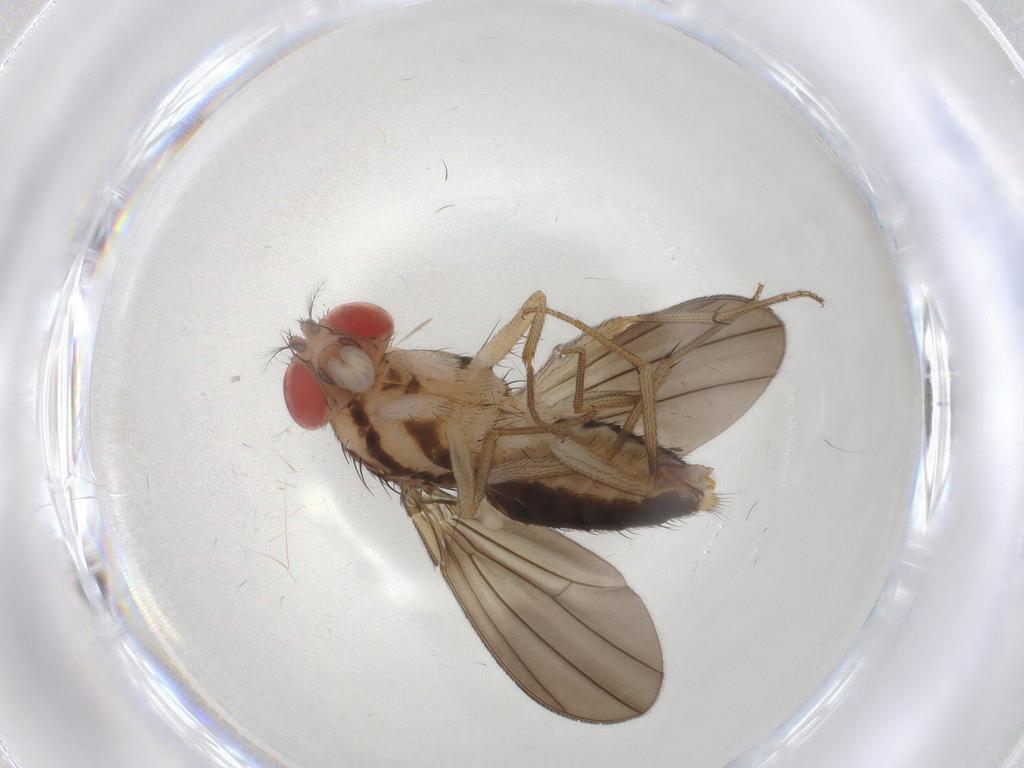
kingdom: Animalia
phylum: Arthropoda
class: Insecta
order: Diptera
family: Drosophilidae
